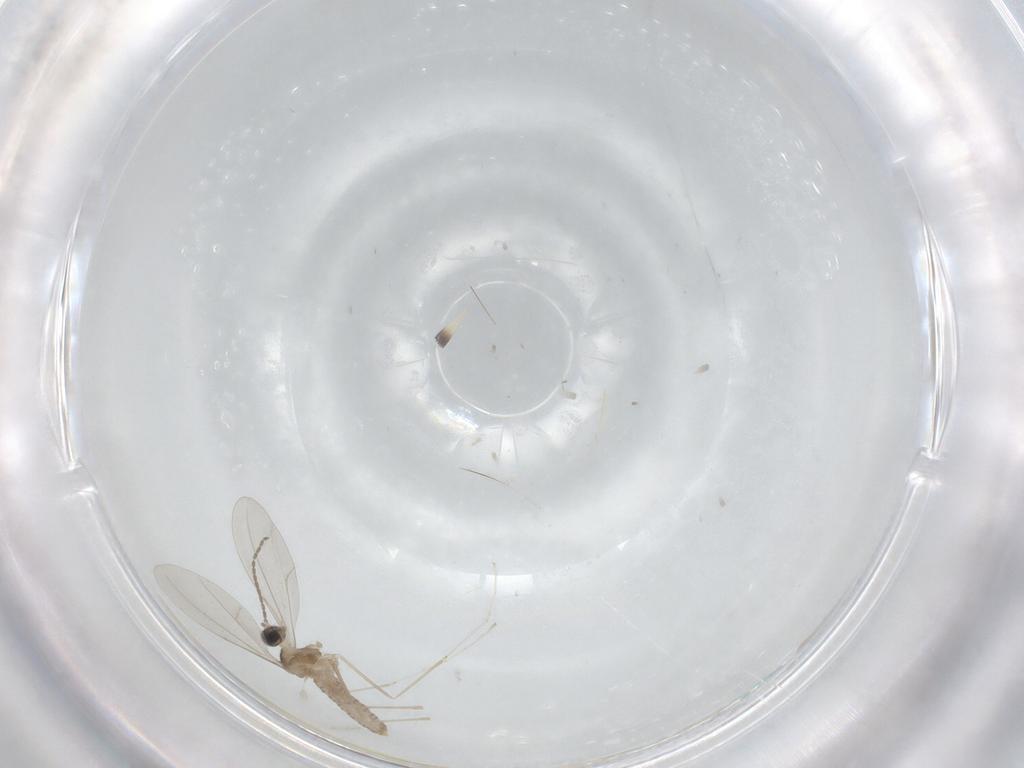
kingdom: Animalia
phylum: Arthropoda
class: Insecta
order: Diptera
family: Cecidomyiidae
